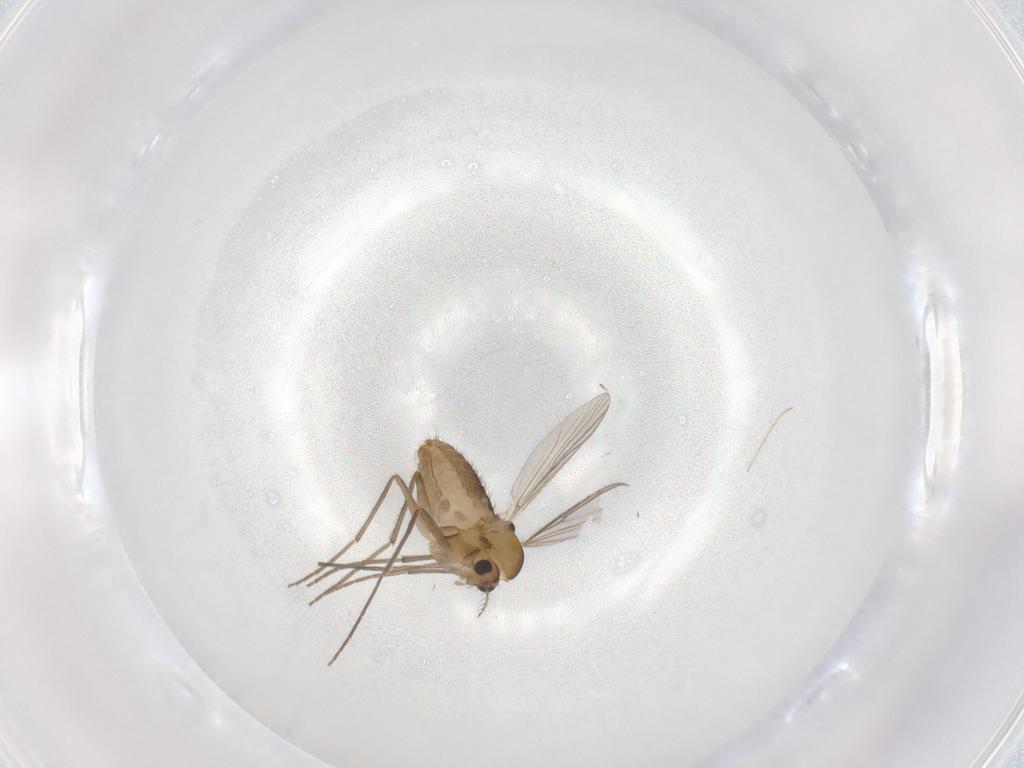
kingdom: Animalia
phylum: Arthropoda
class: Insecta
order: Diptera
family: Chironomidae
